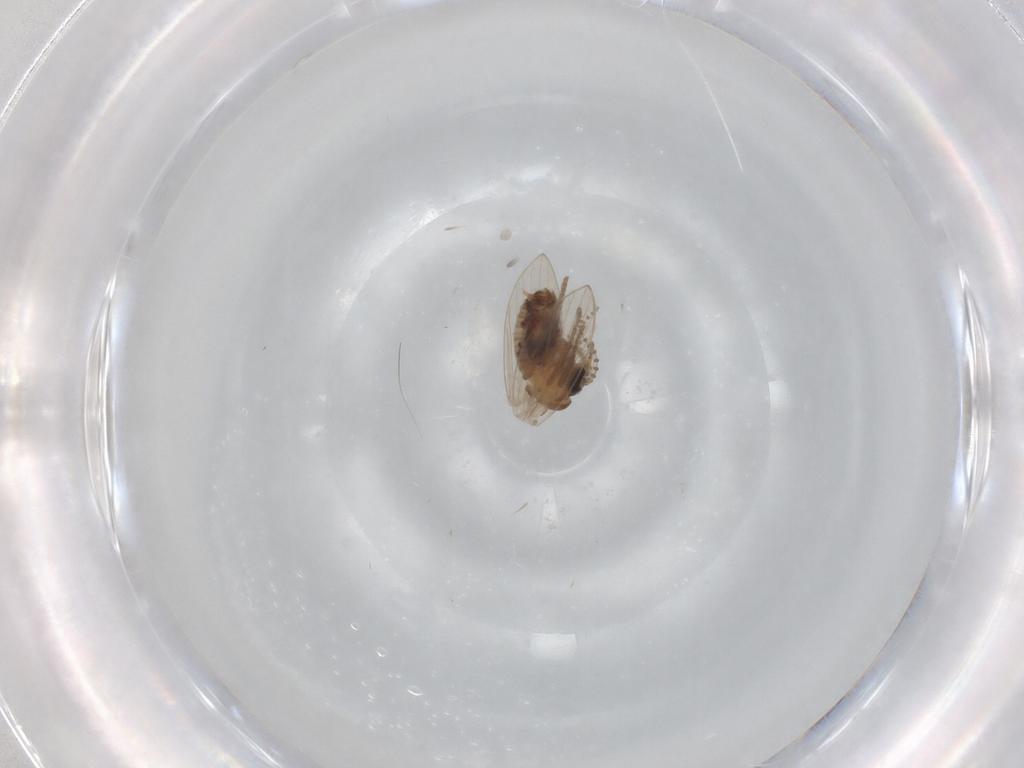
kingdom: Animalia
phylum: Arthropoda
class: Insecta
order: Diptera
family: Psychodidae
